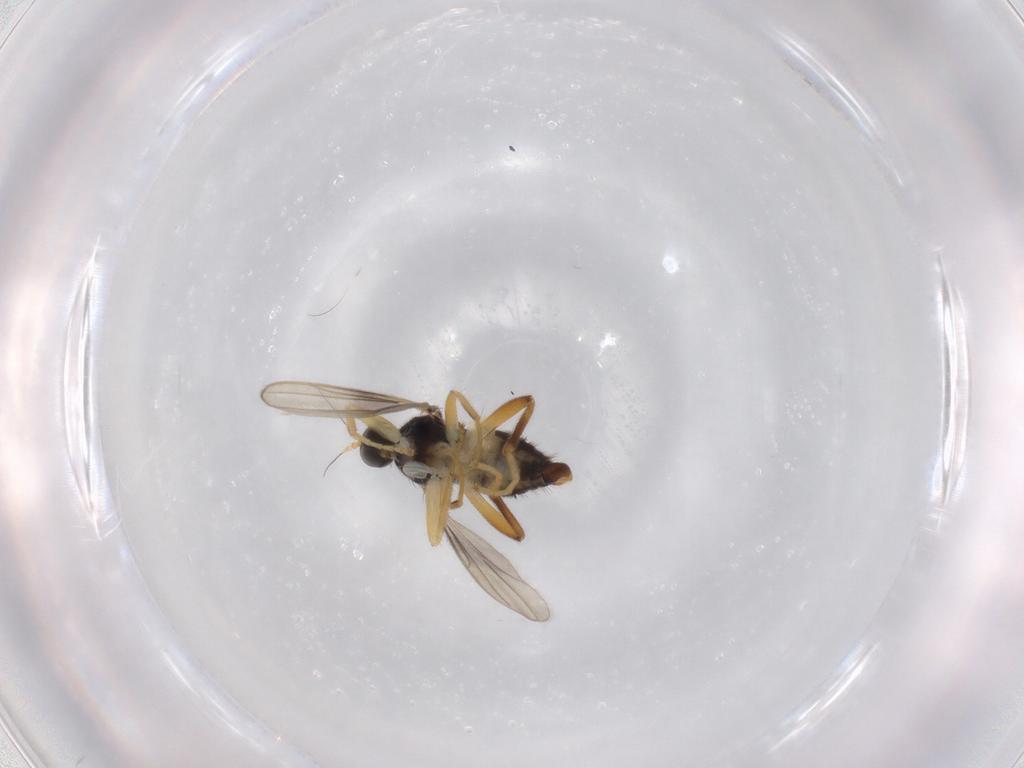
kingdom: Animalia
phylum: Arthropoda
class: Insecta
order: Diptera
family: Hybotidae
